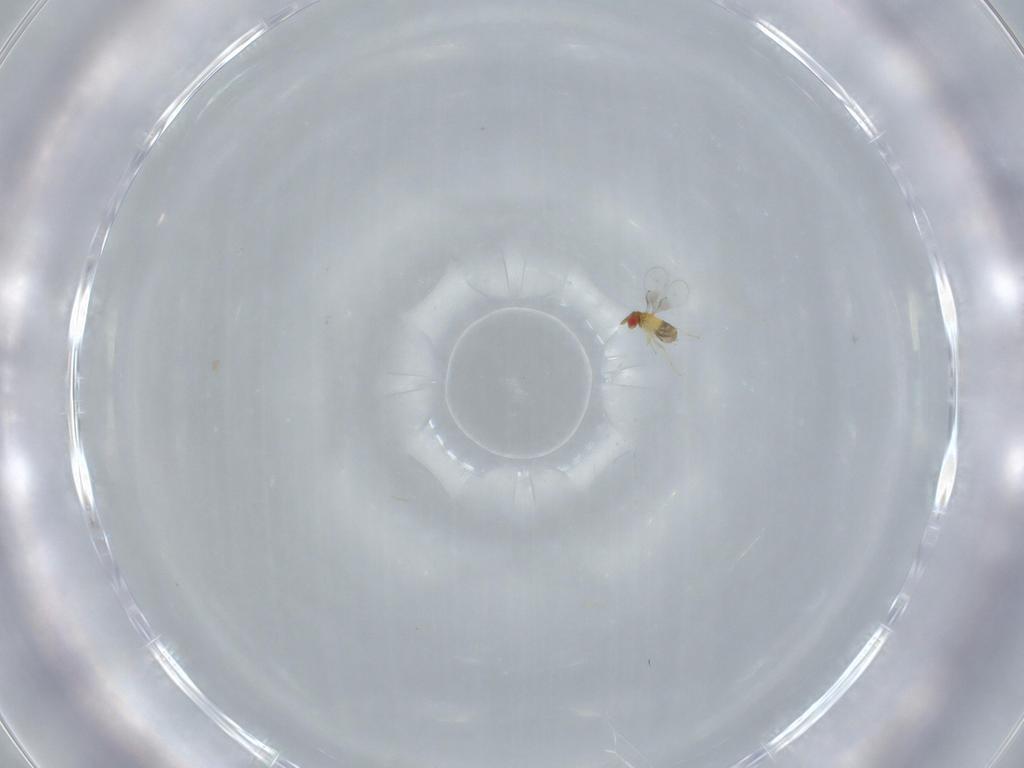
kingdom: Animalia
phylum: Arthropoda
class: Insecta
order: Hymenoptera
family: Trichogrammatidae
